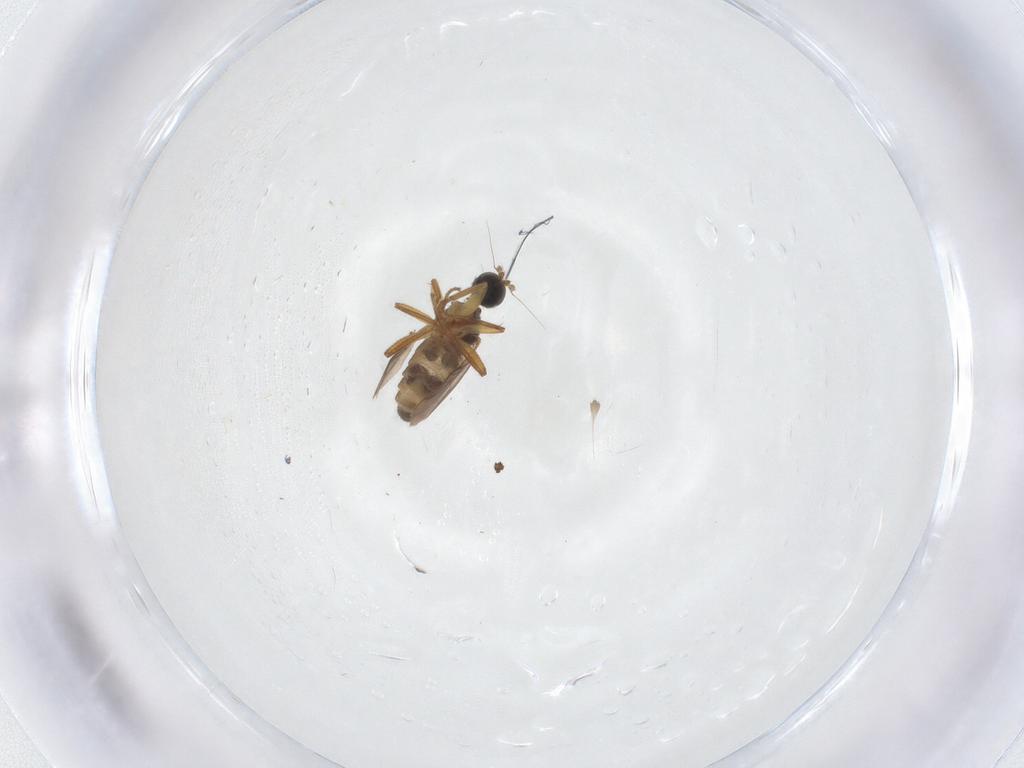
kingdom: Animalia
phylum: Arthropoda
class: Insecta
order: Diptera
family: Hybotidae
